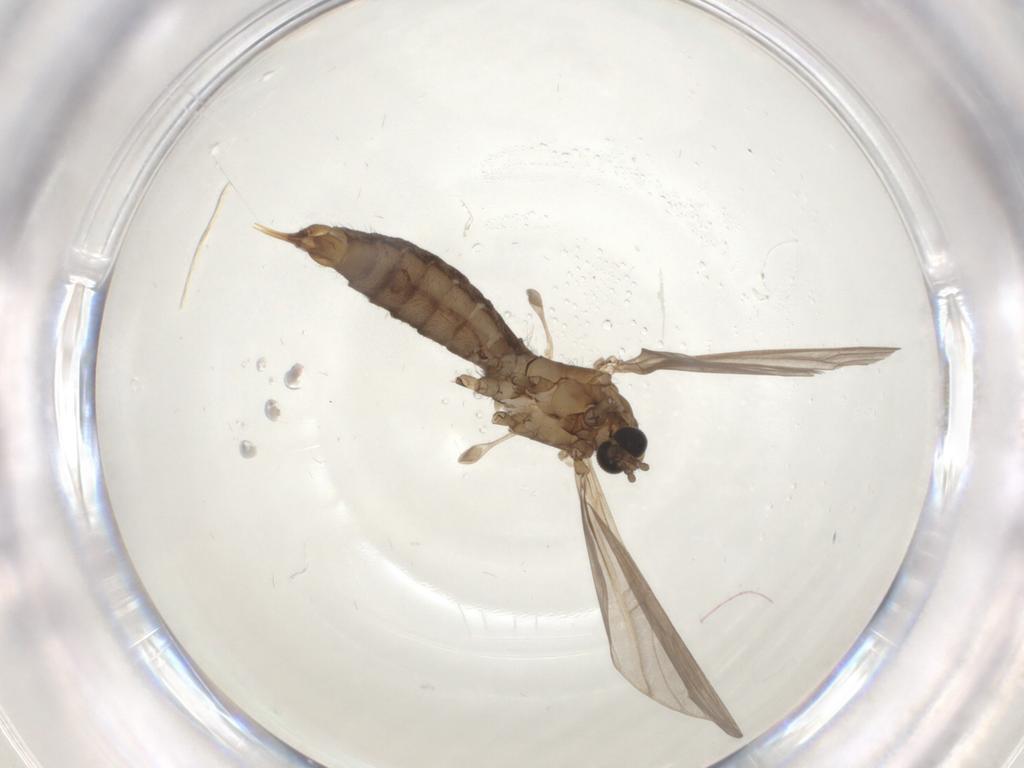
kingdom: Animalia
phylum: Arthropoda
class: Insecta
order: Diptera
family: Limoniidae
